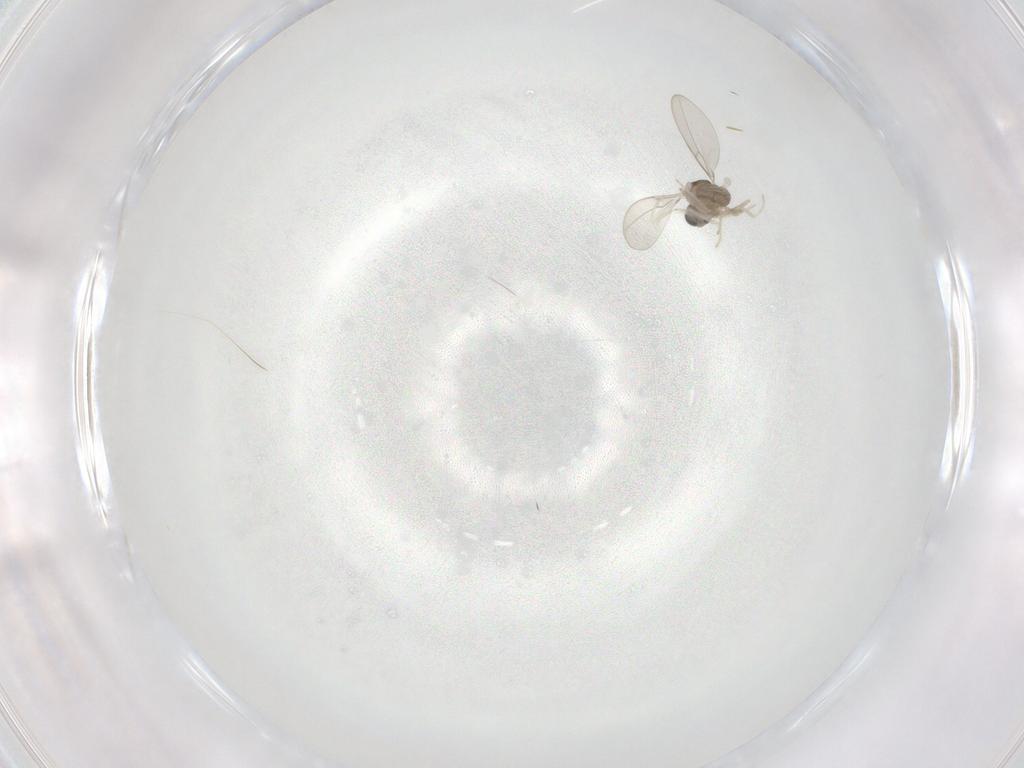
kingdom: Animalia
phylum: Arthropoda
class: Insecta
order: Diptera
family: Cecidomyiidae
